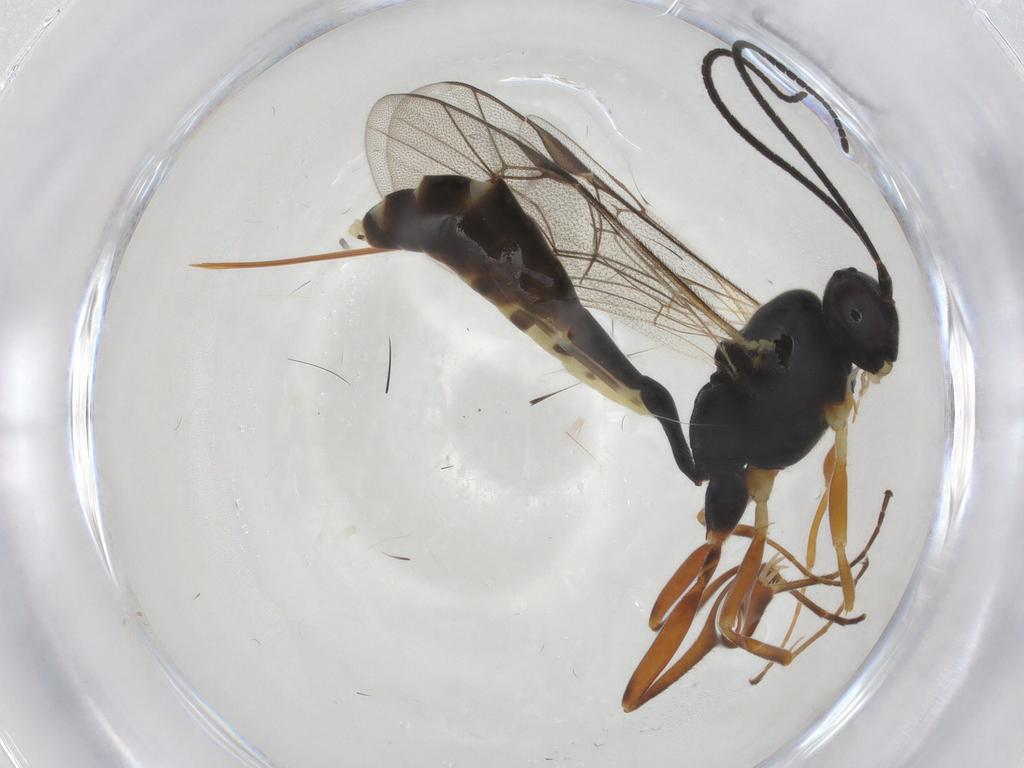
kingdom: Animalia
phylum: Arthropoda
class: Insecta
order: Hymenoptera
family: Ichneumonidae
